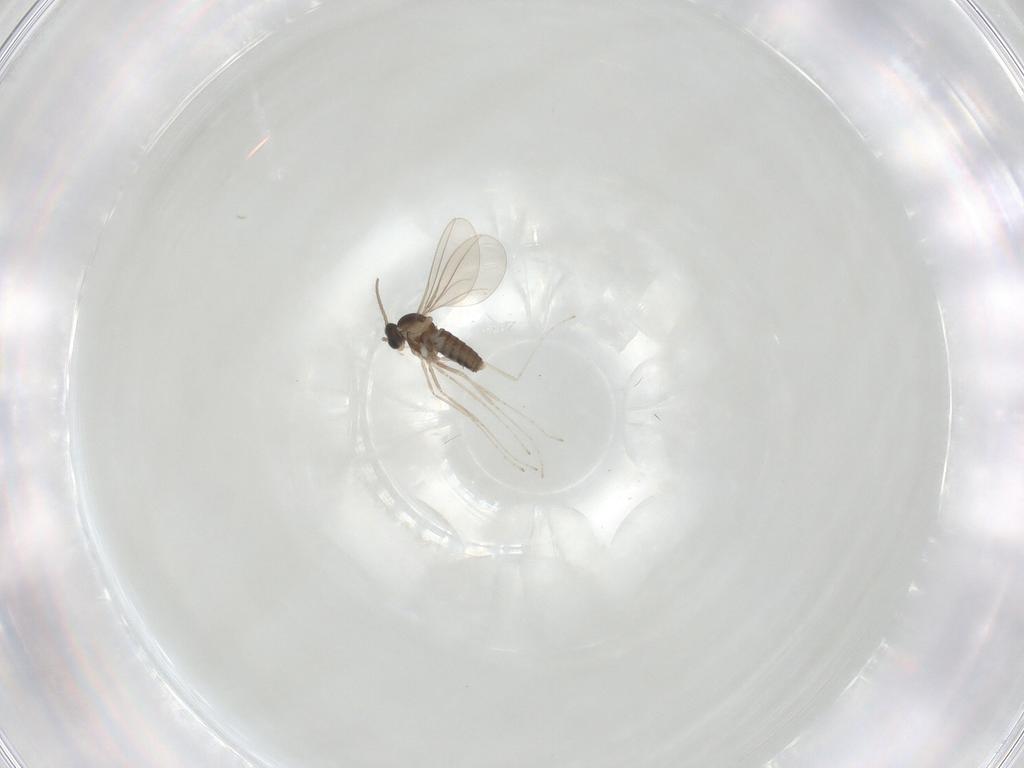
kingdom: Animalia
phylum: Arthropoda
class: Insecta
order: Diptera
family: Cecidomyiidae
